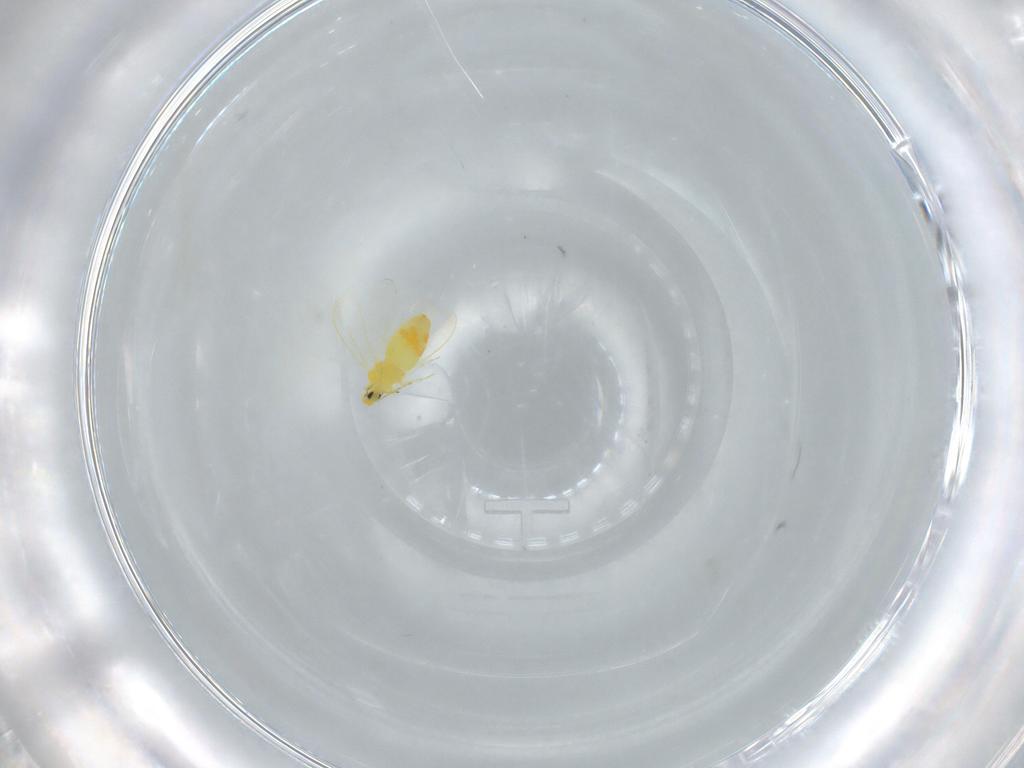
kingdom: Animalia
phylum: Arthropoda
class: Insecta
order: Hemiptera
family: Aleyrodidae
